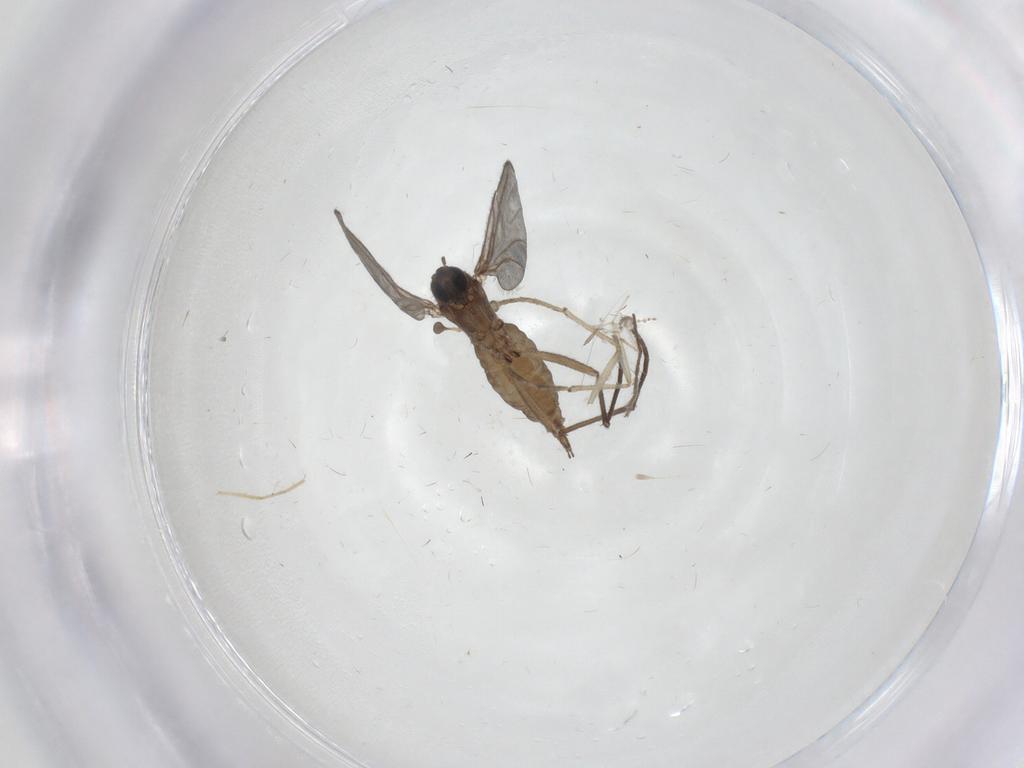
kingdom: Animalia
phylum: Arthropoda
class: Insecta
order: Diptera
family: Sciaridae
